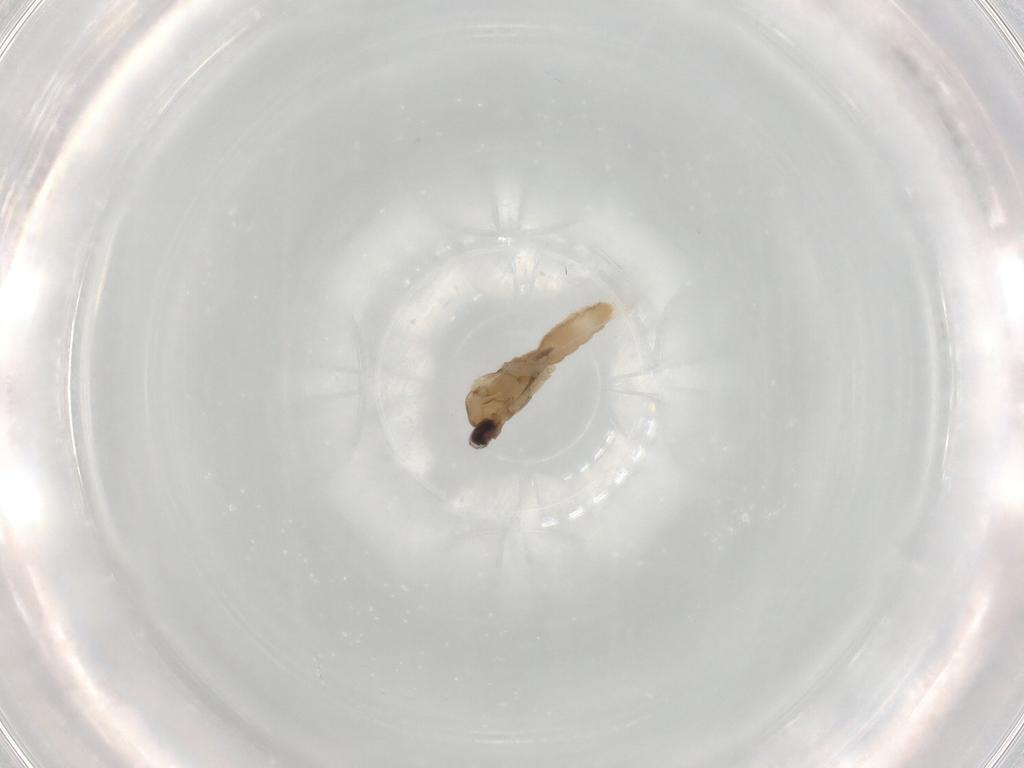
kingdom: Animalia
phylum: Arthropoda
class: Insecta
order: Diptera
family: Cecidomyiidae
